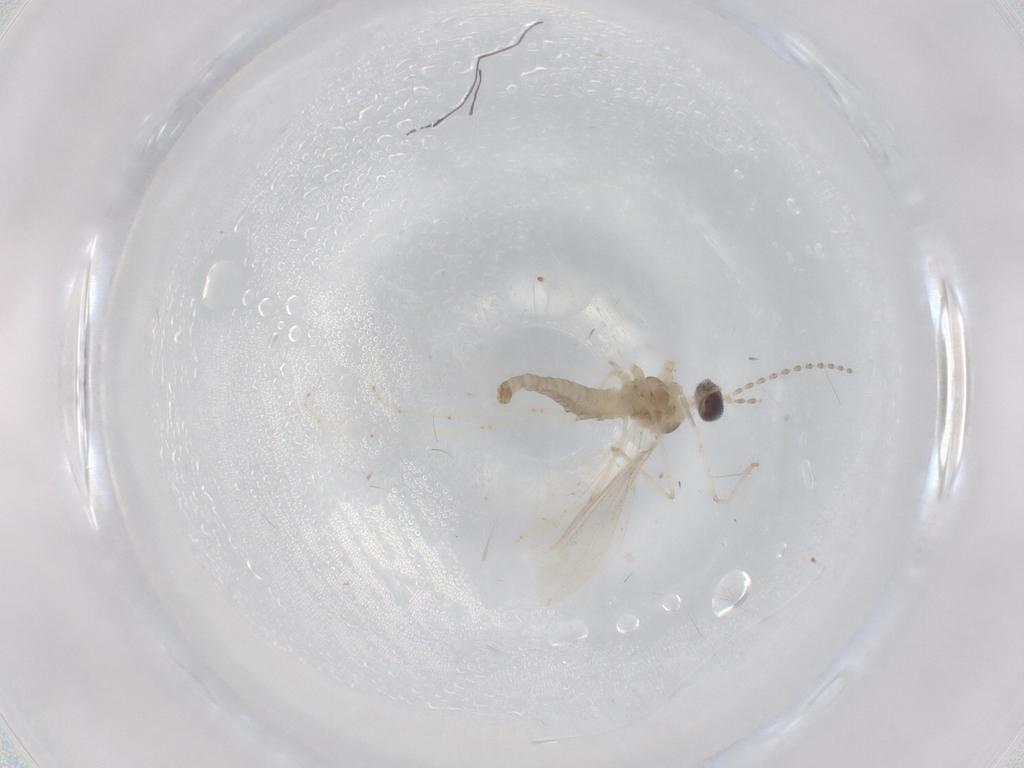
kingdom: Animalia
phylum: Arthropoda
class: Insecta
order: Diptera
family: Cecidomyiidae
